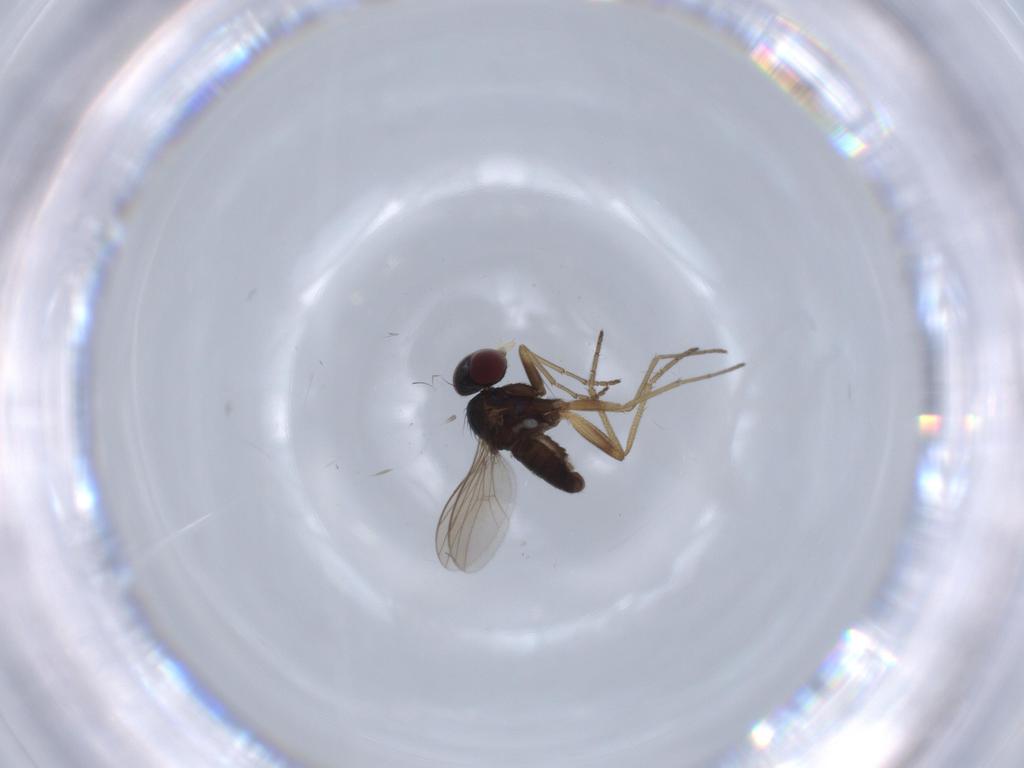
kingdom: Animalia
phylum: Arthropoda
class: Insecta
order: Diptera
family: Dolichopodidae
